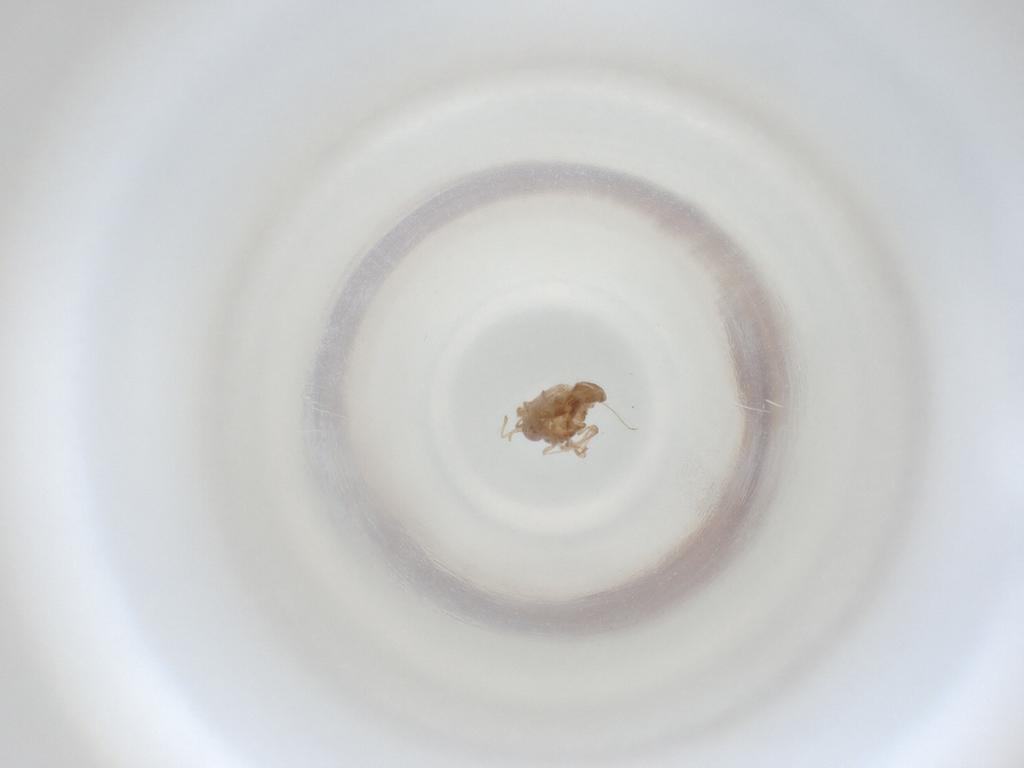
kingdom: Animalia
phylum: Arthropoda
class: Insecta
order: Diptera
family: Cecidomyiidae
